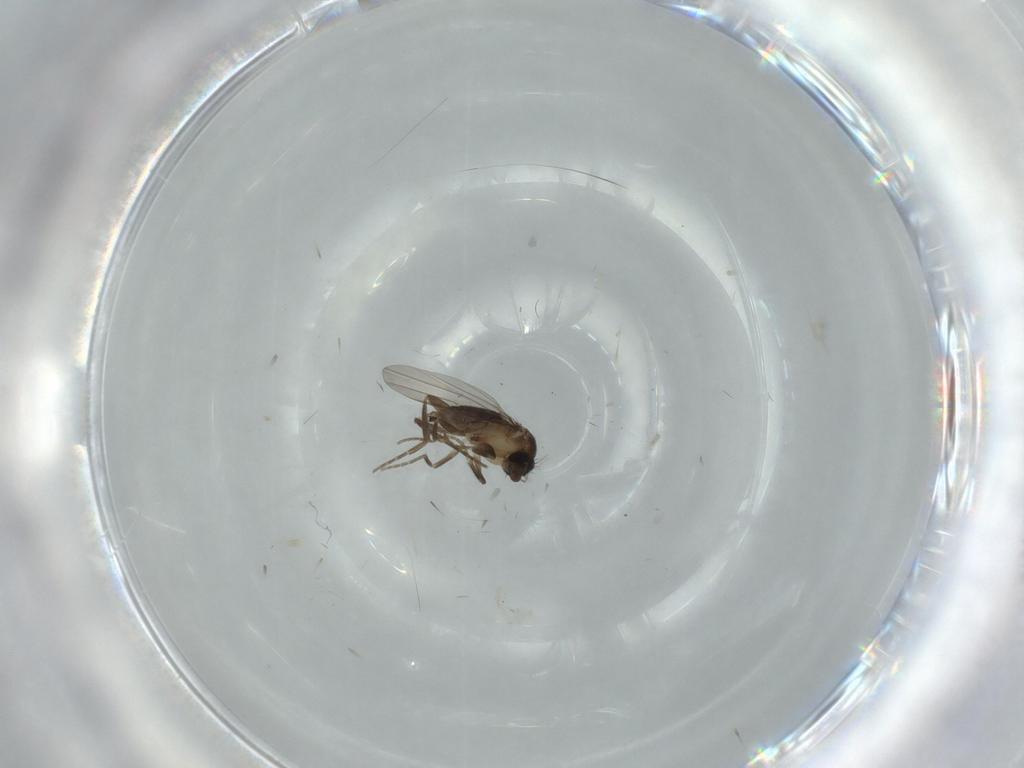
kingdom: Animalia
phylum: Arthropoda
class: Insecta
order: Diptera
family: Phoridae
